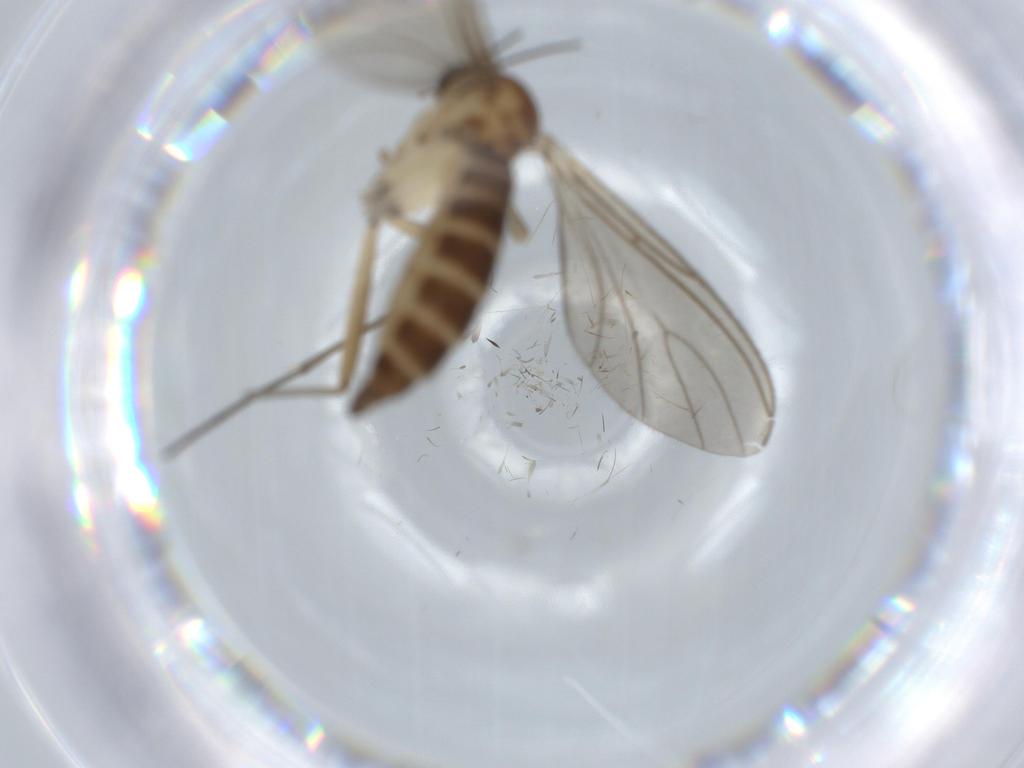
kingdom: Animalia
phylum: Arthropoda
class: Insecta
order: Diptera
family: Sciaridae
